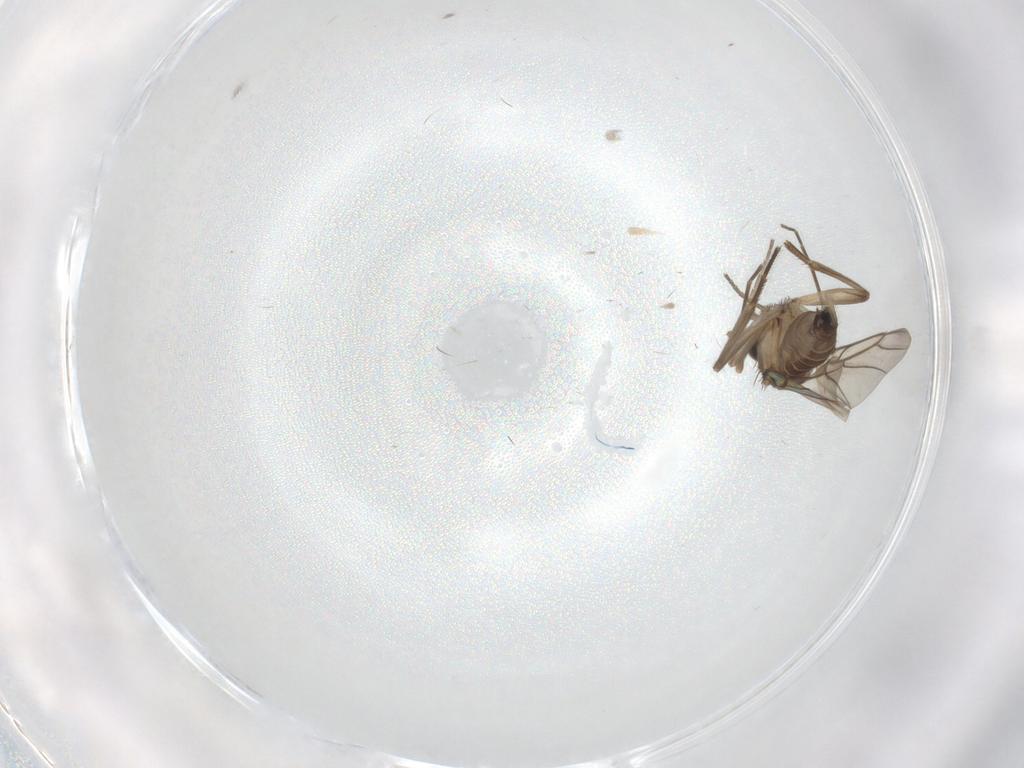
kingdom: Animalia
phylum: Arthropoda
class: Insecta
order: Diptera
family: Phoridae
